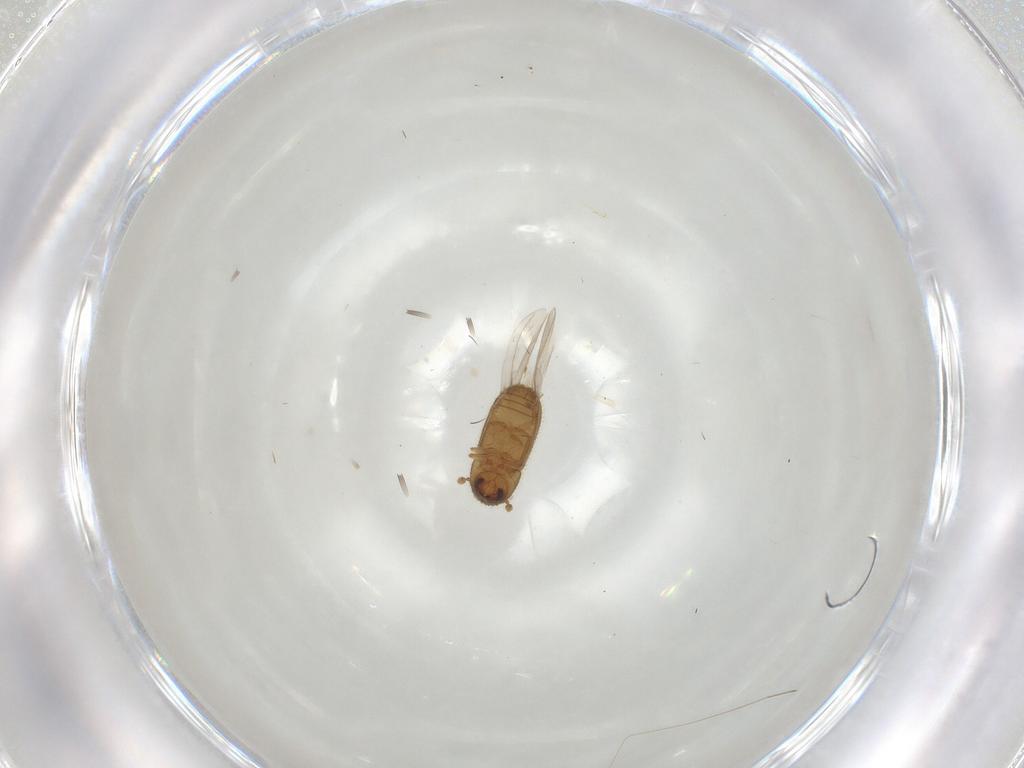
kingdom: Animalia
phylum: Arthropoda
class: Insecta
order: Coleoptera
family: Curculionidae
